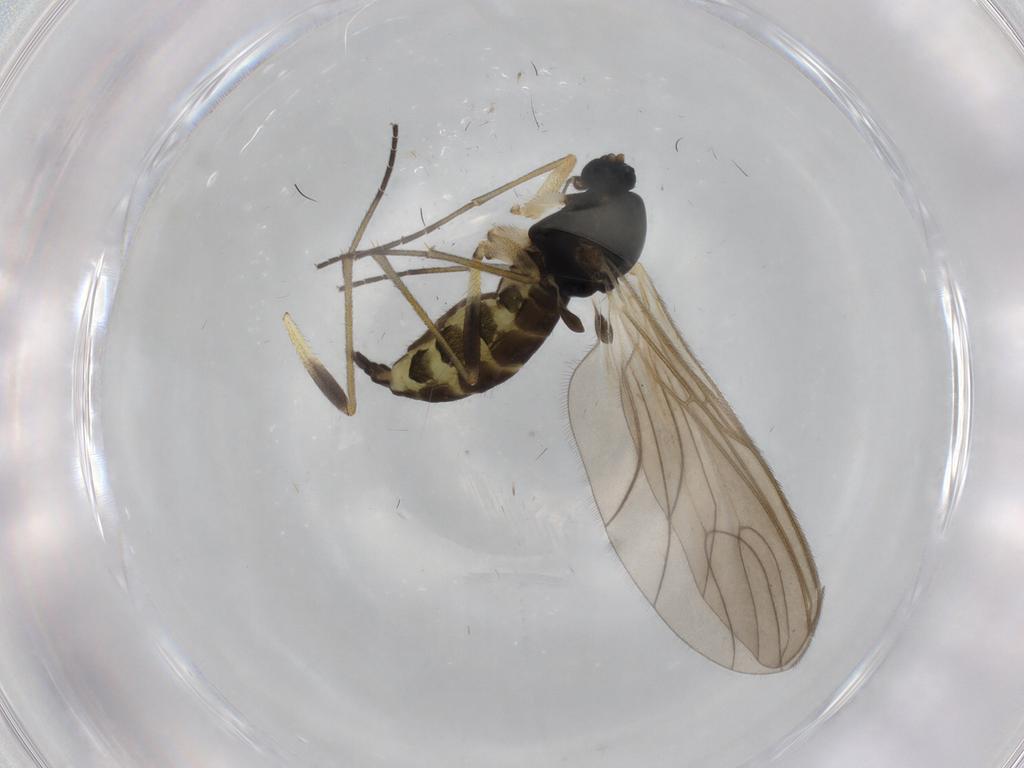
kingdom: Animalia
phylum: Arthropoda
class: Insecta
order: Diptera
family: Sciaridae
